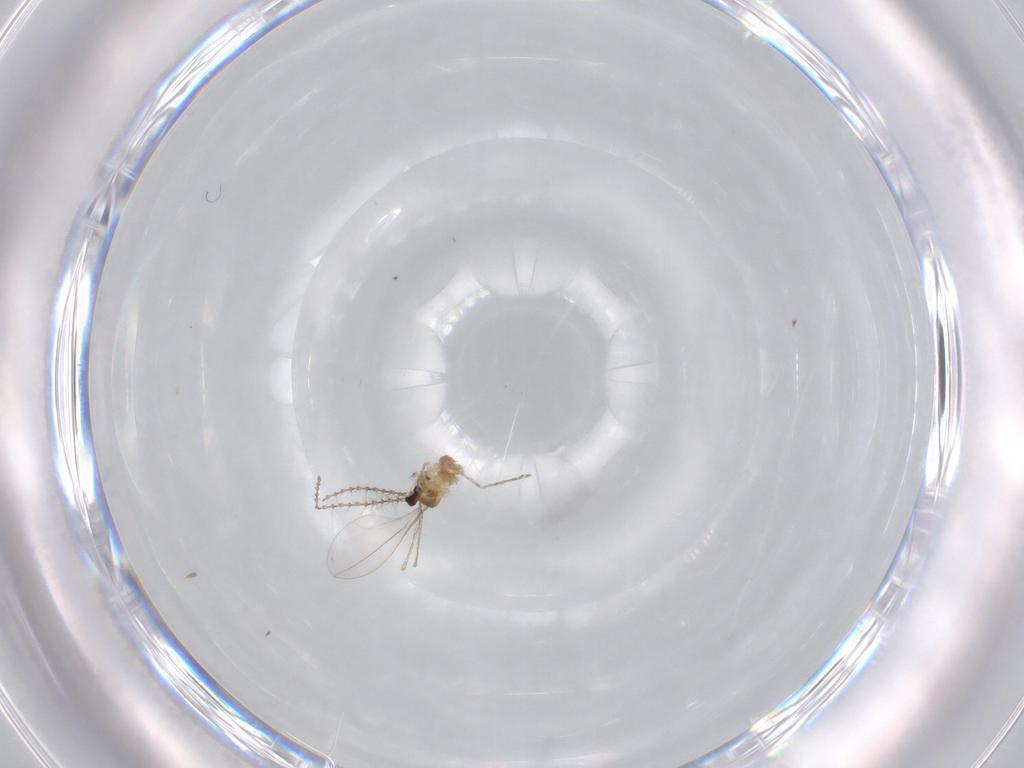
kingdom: Animalia
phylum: Arthropoda
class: Insecta
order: Diptera
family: Cecidomyiidae
